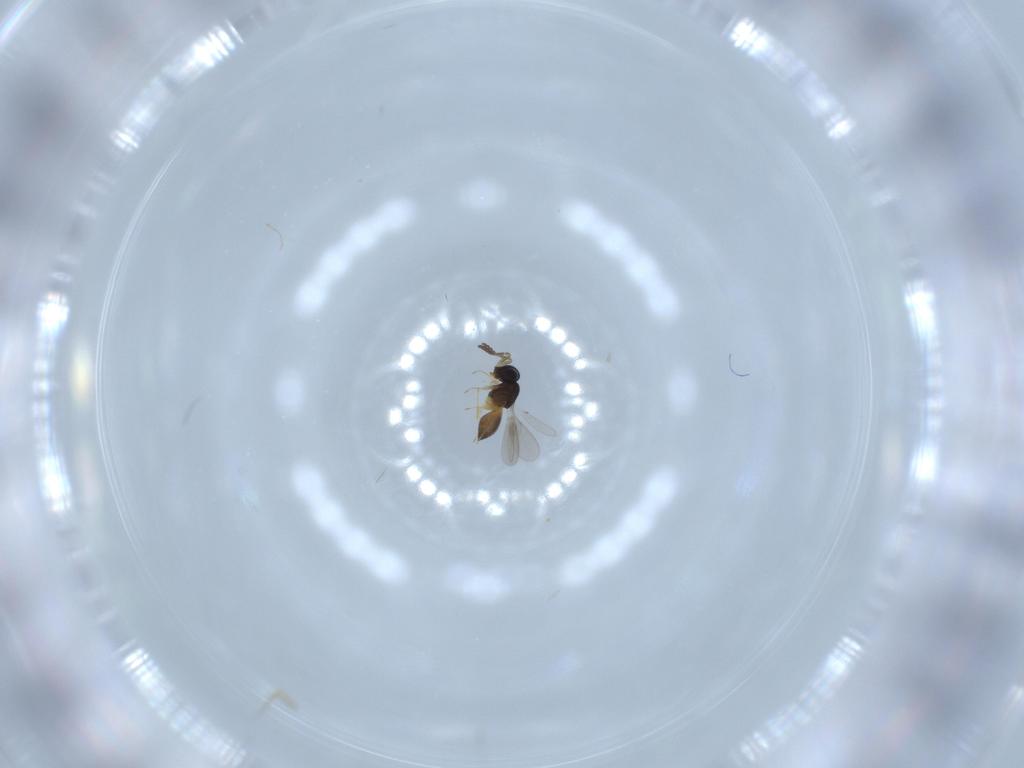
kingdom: Animalia
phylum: Arthropoda
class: Insecta
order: Hymenoptera
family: Scelionidae
